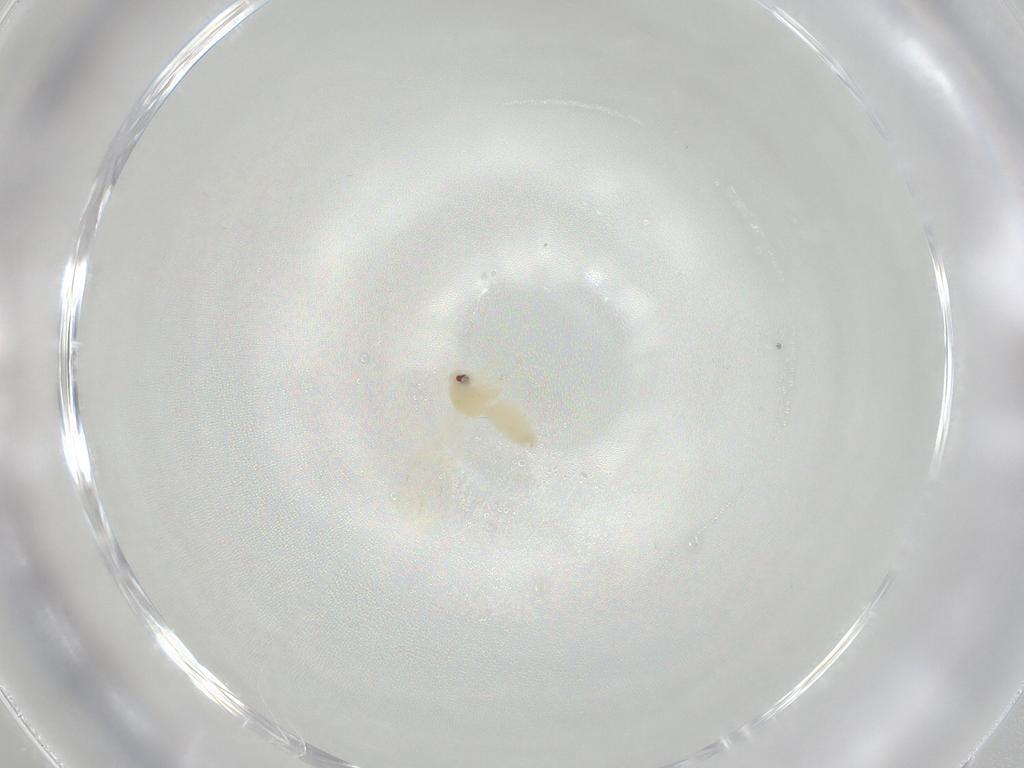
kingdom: Animalia
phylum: Arthropoda
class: Insecta
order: Hemiptera
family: Aleyrodidae
